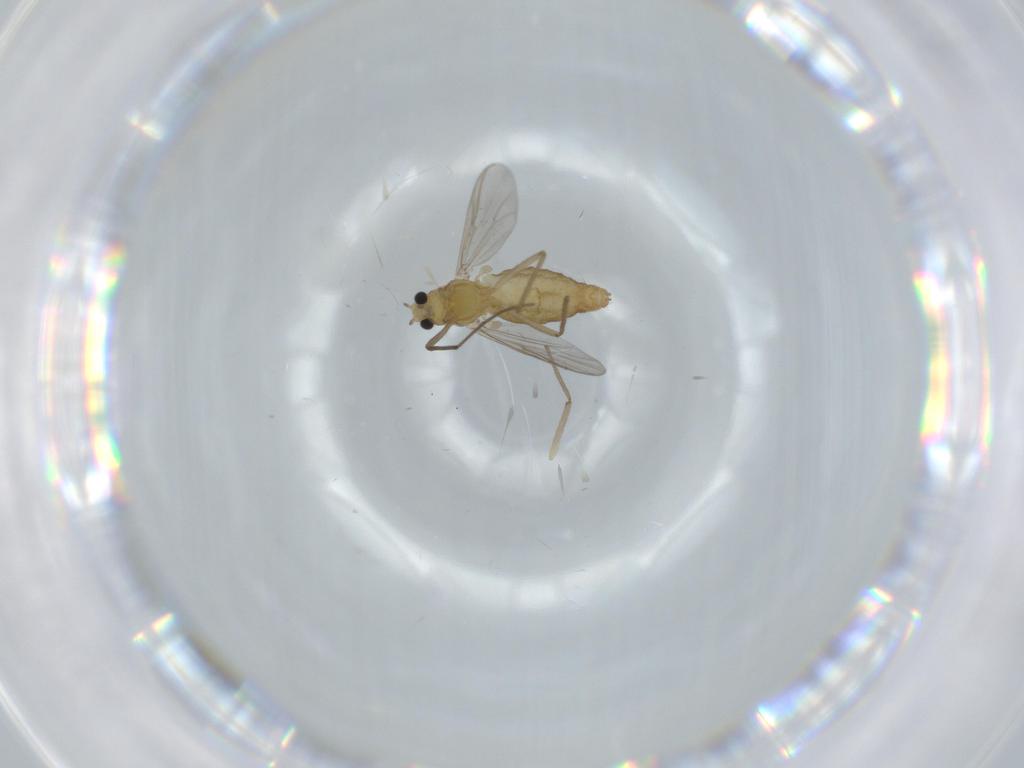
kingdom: Animalia
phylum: Arthropoda
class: Insecta
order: Diptera
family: Chironomidae
